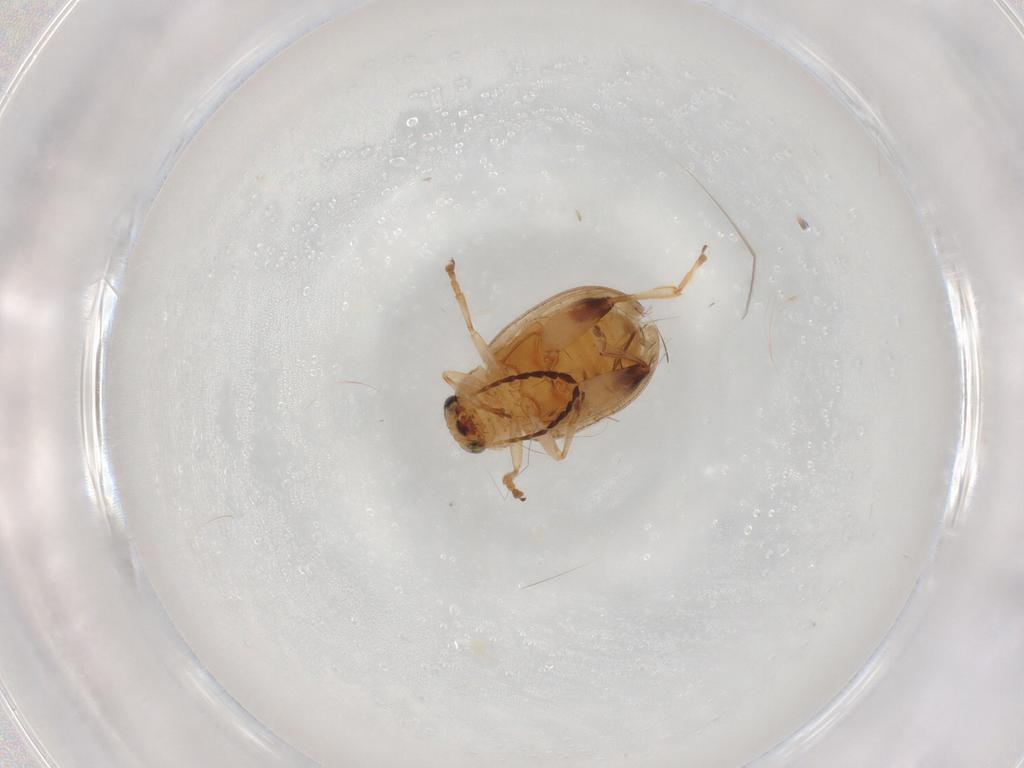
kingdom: Animalia
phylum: Arthropoda
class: Insecta
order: Coleoptera
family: Chrysomelidae
